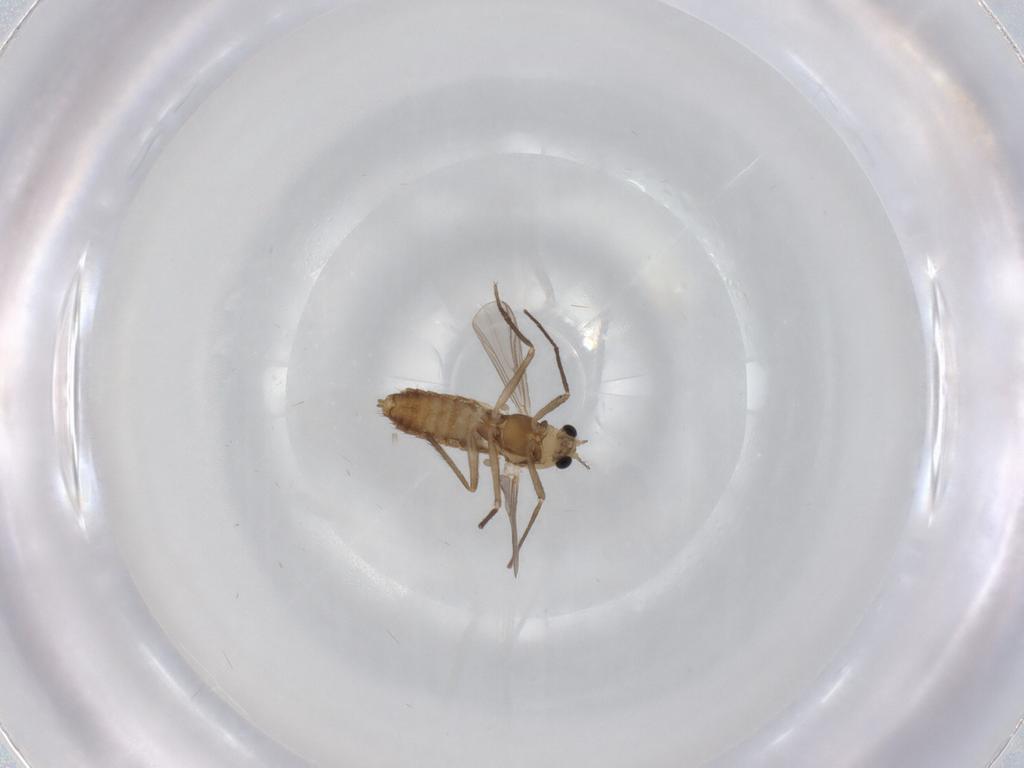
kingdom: Animalia
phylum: Arthropoda
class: Insecta
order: Diptera
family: Chironomidae
